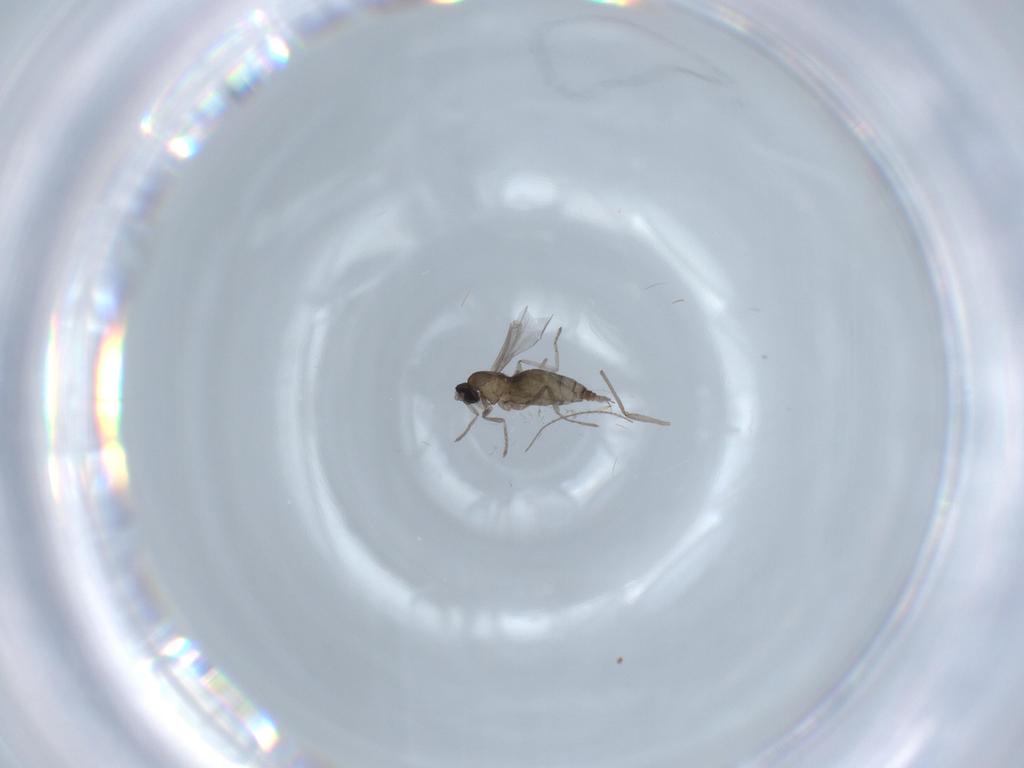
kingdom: Animalia
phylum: Arthropoda
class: Insecta
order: Diptera
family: Cecidomyiidae
